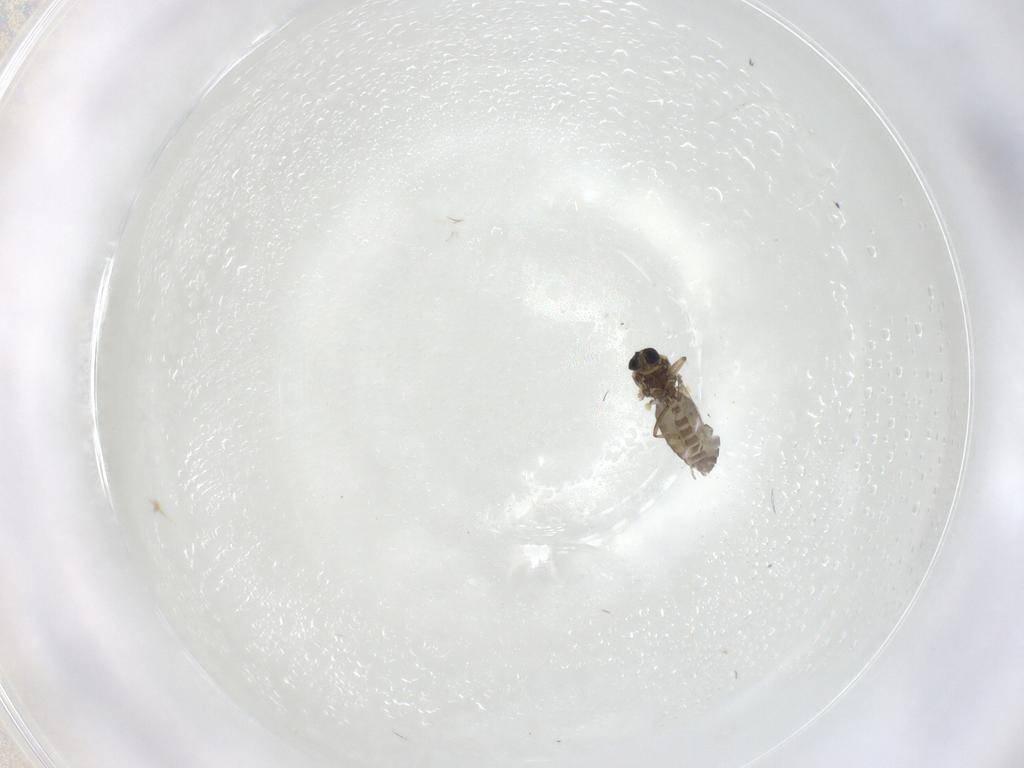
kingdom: Animalia
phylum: Arthropoda
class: Insecta
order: Diptera
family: Ceratopogonidae
